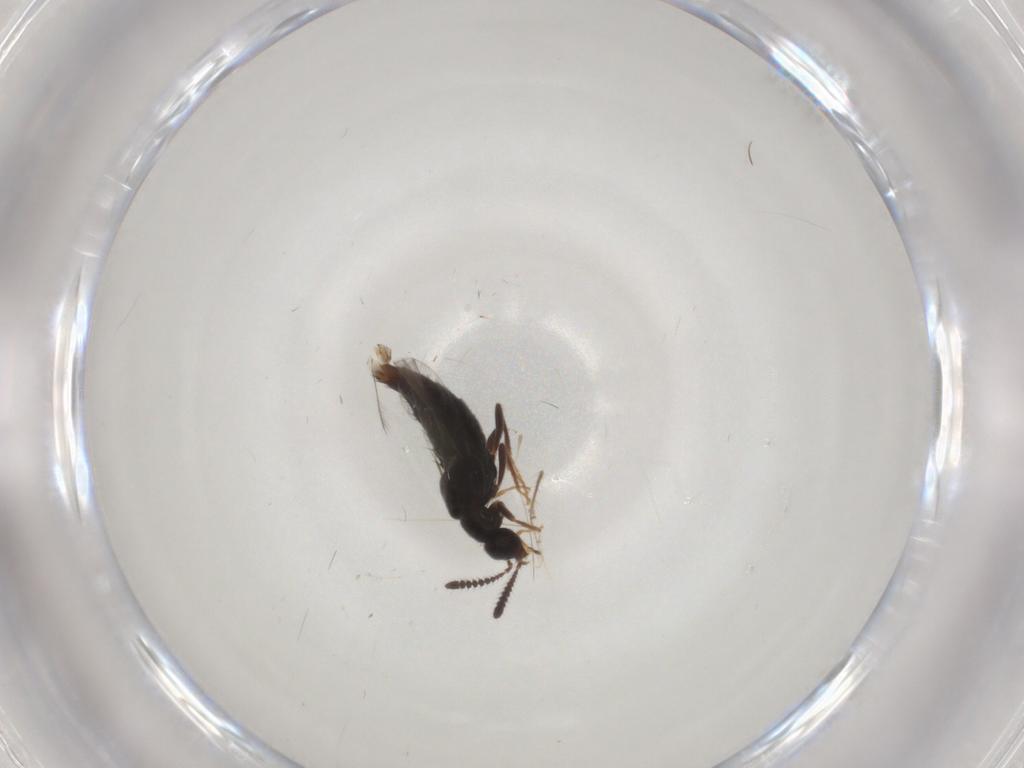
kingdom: Animalia
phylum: Arthropoda
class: Insecta
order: Coleoptera
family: Staphylinidae
